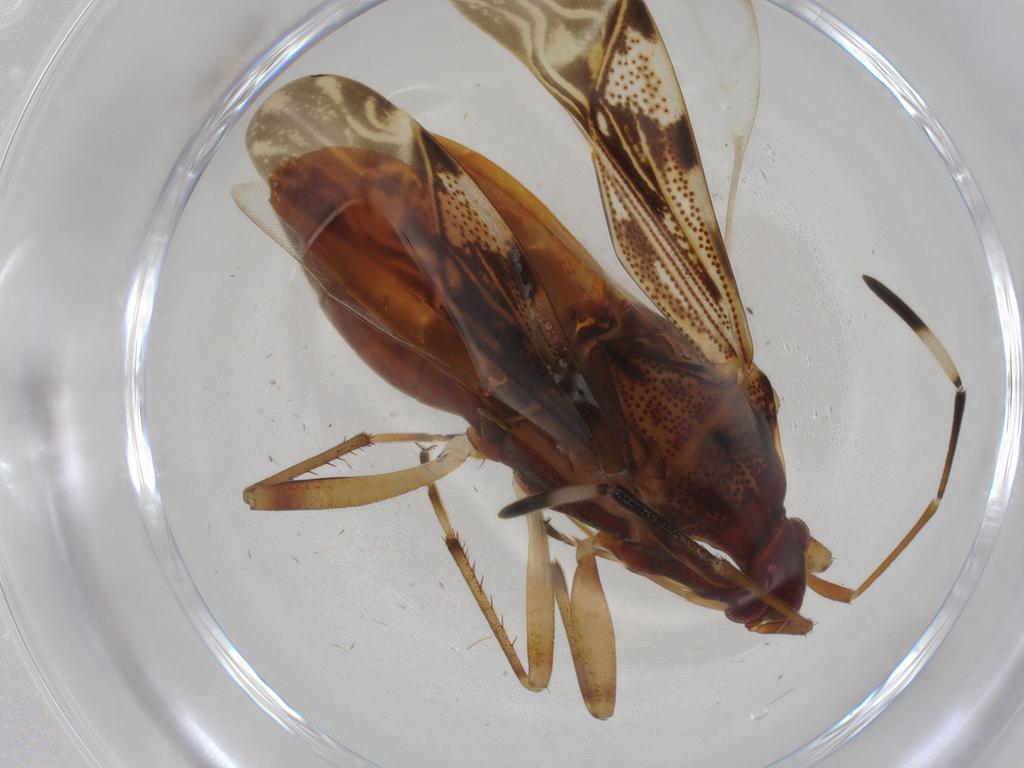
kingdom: Animalia
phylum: Arthropoda
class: Insecta
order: Hemiptera
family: Rhyparochromidae
